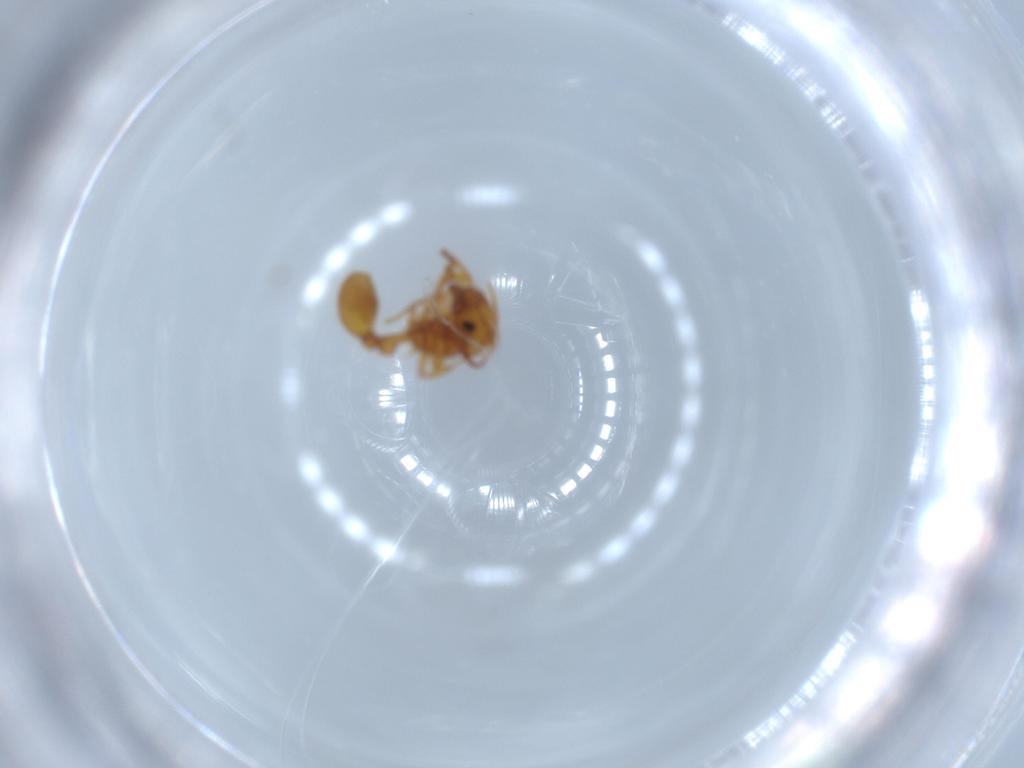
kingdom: Animalia
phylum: Arthropoda
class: Insecta
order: Hymenoptera
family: Formicidae
